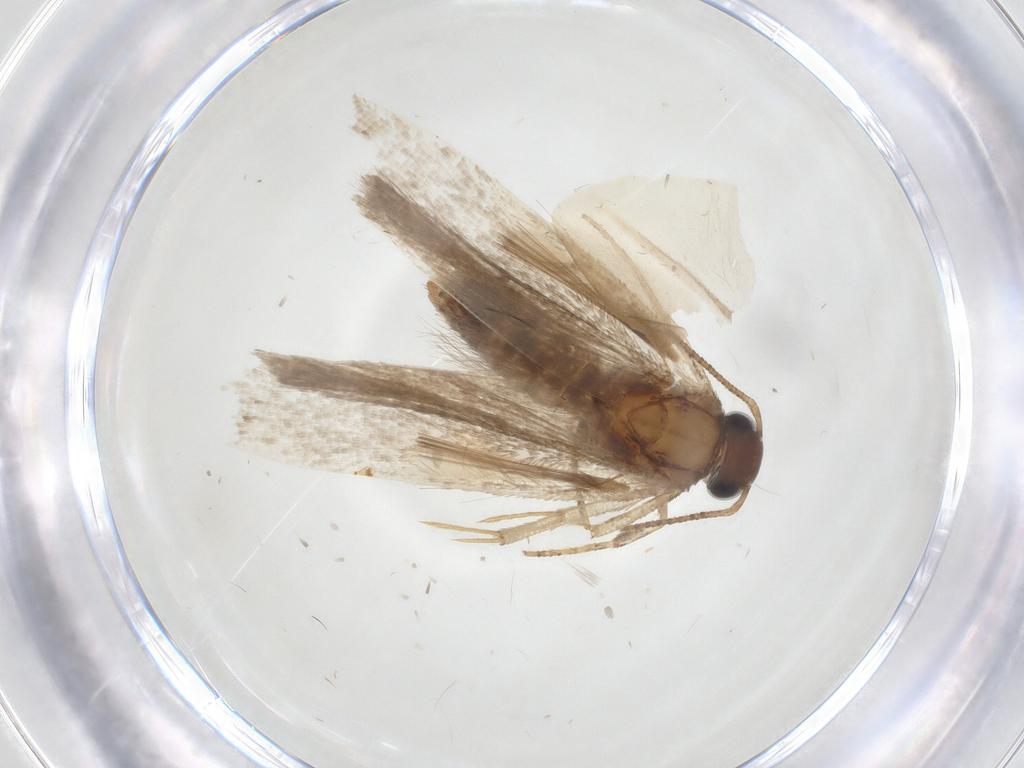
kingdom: Animalia
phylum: Arthropoda
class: Insecta
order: Lepidoptera
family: Gelechiidae
